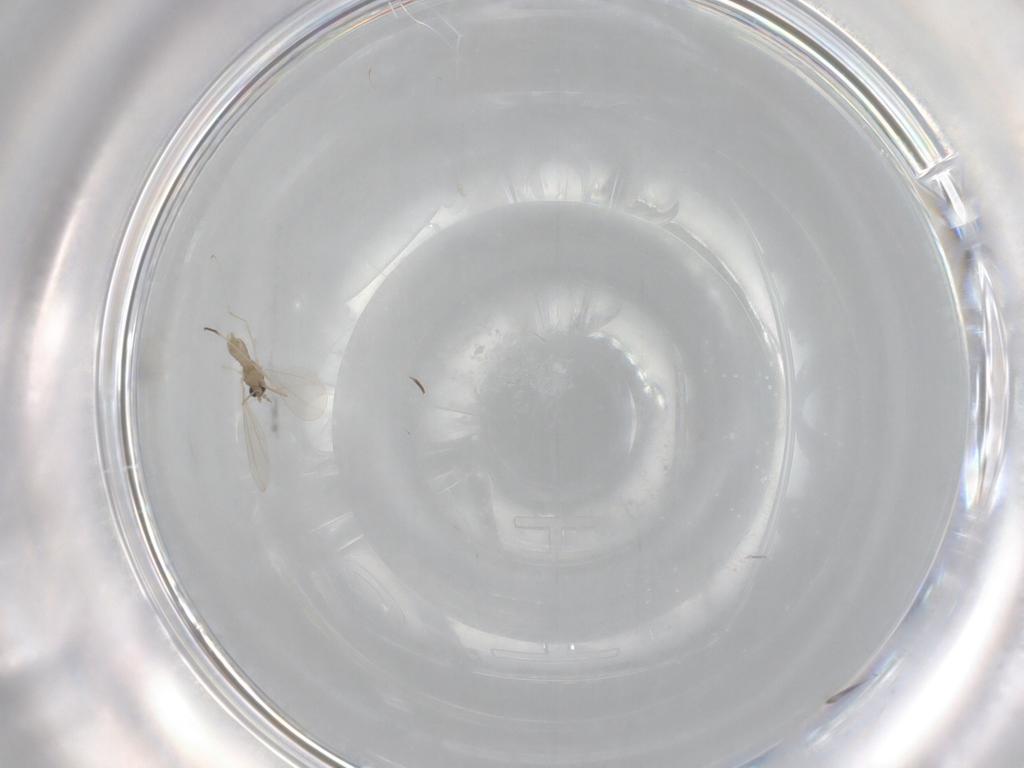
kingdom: Animalia
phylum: Arthropoda
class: Insecta
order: Diptera
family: Cecidomyiidae
